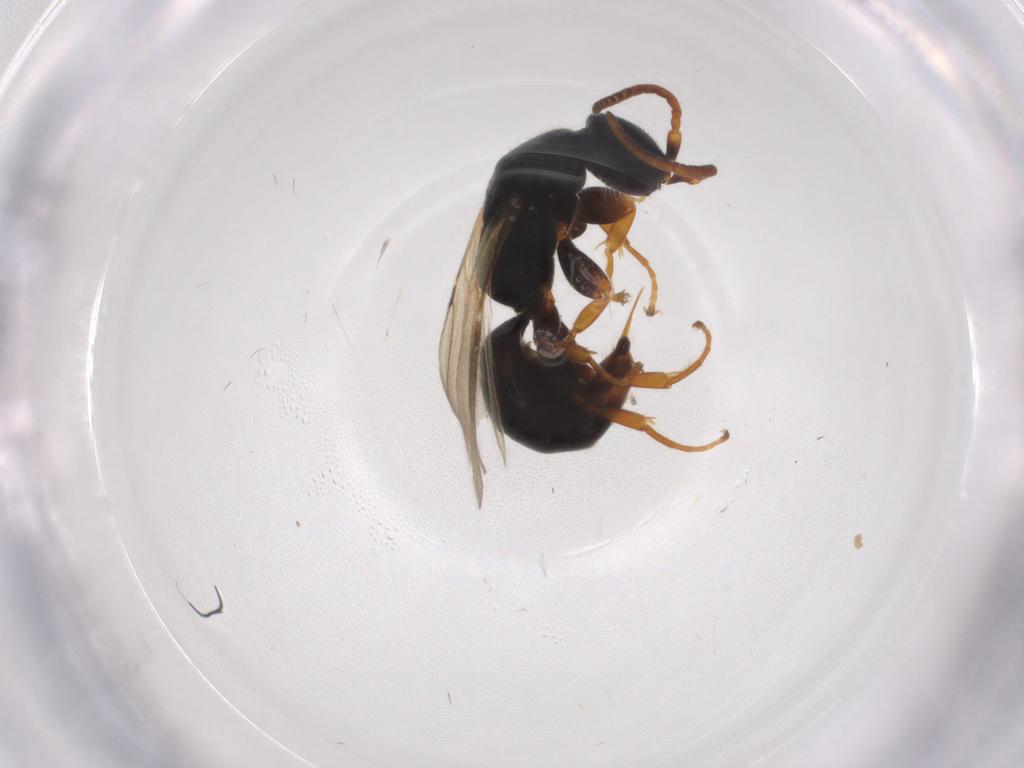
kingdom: Animalia
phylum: Arthropoda
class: Insecta
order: Hymenoptera
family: Bethylidae
